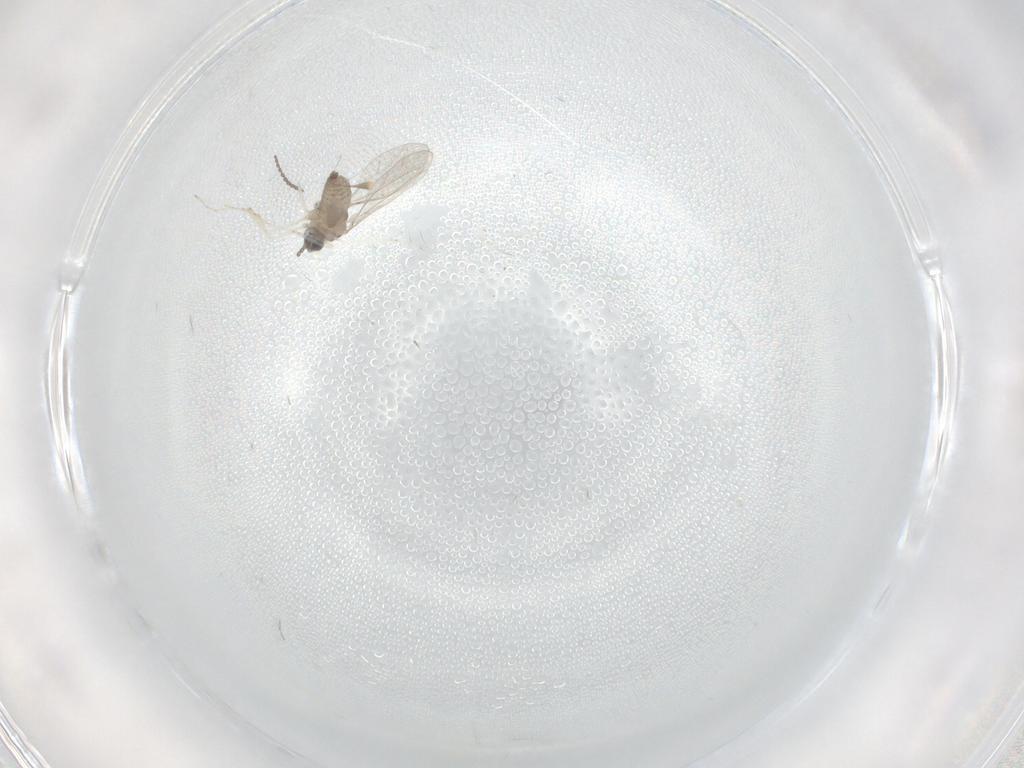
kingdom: Animalia
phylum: Arthropoda
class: Insecta
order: Diptera
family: Cecidomyiidae
